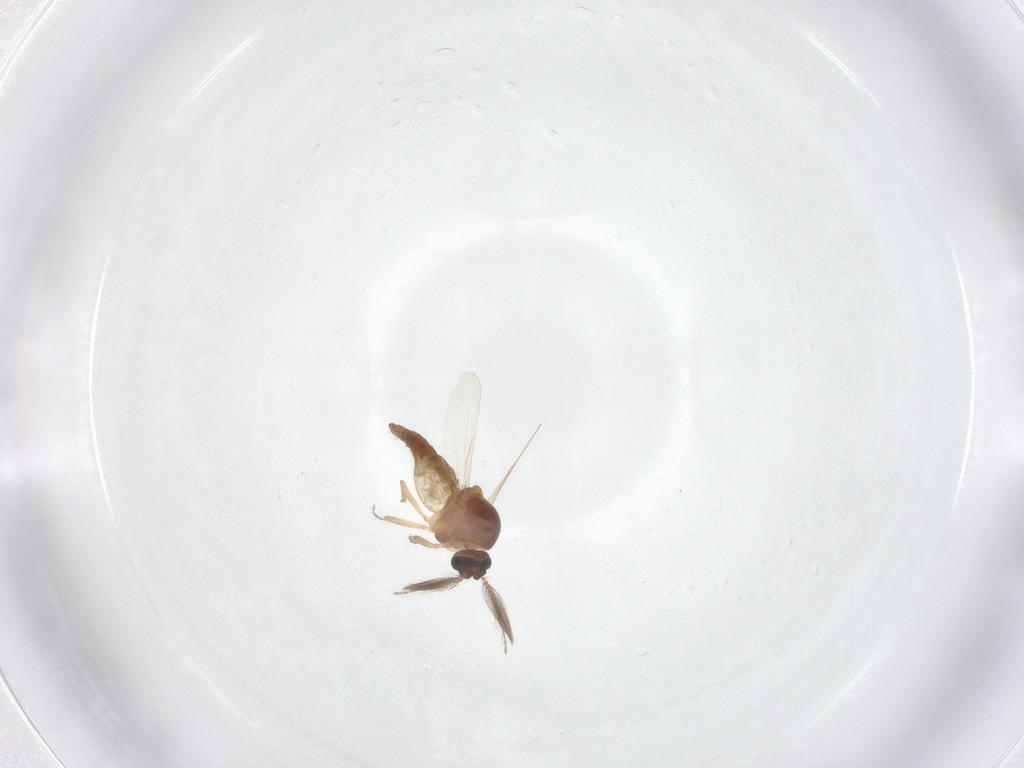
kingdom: Animalia
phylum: Arthropoda
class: Insecta
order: Diptera
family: Ceratopogonidae
